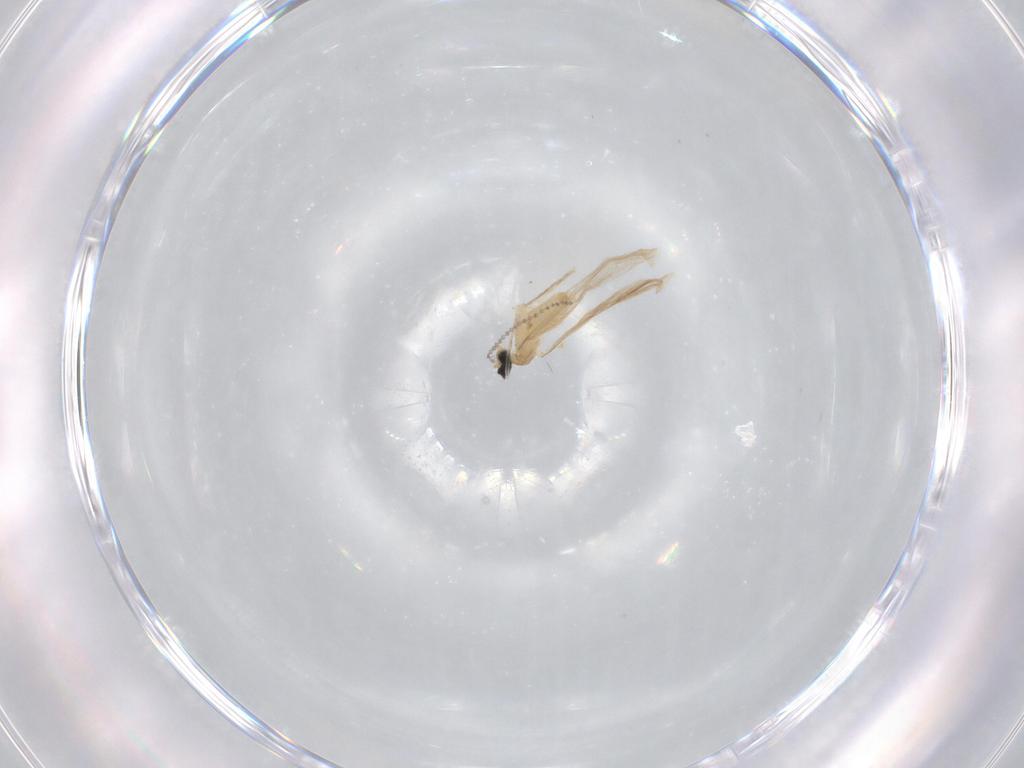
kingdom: Animalia
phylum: Arthropoda
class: Insecta
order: Diptera
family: Cecidomyiidae
